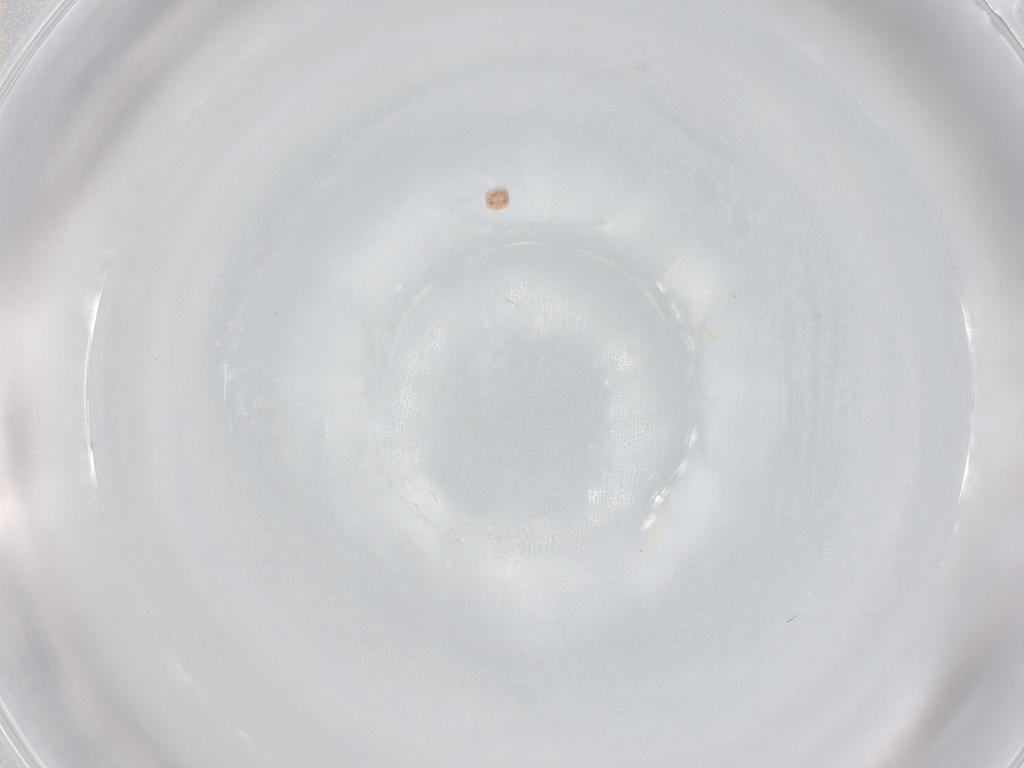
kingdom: Animalia
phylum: Arthropoda
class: Arachnida
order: Trombidiformes
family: Scutacaridae
